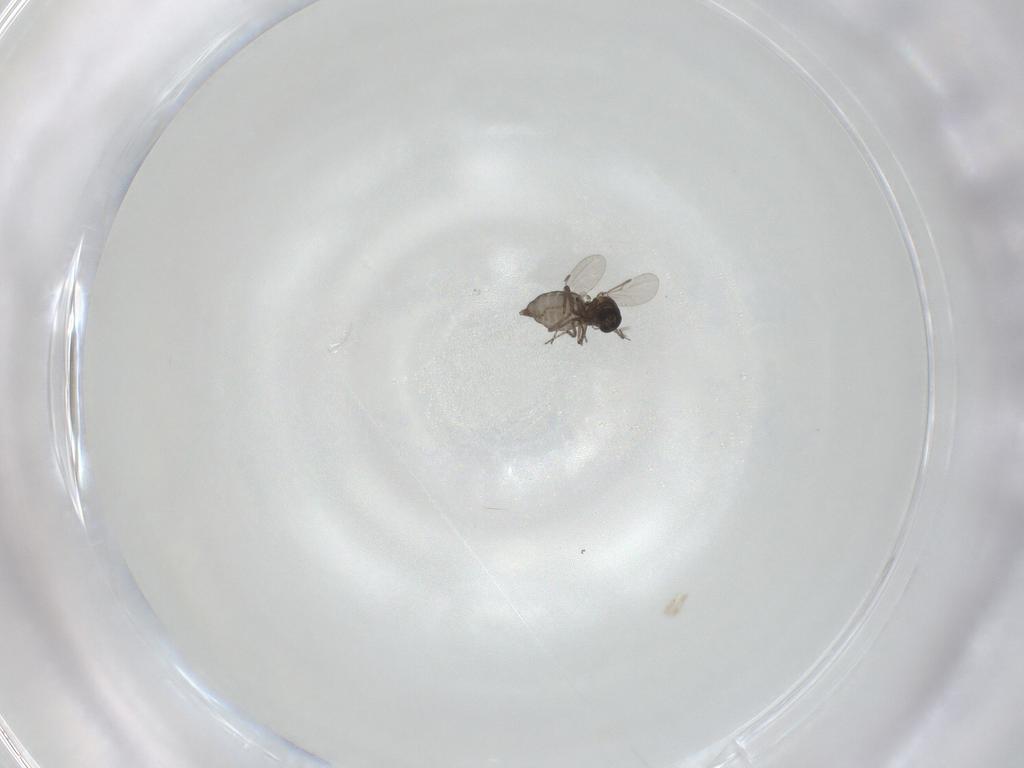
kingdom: Animalia
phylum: Arthropoda
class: Insecta
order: Diptera
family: Ceratopogonidae
